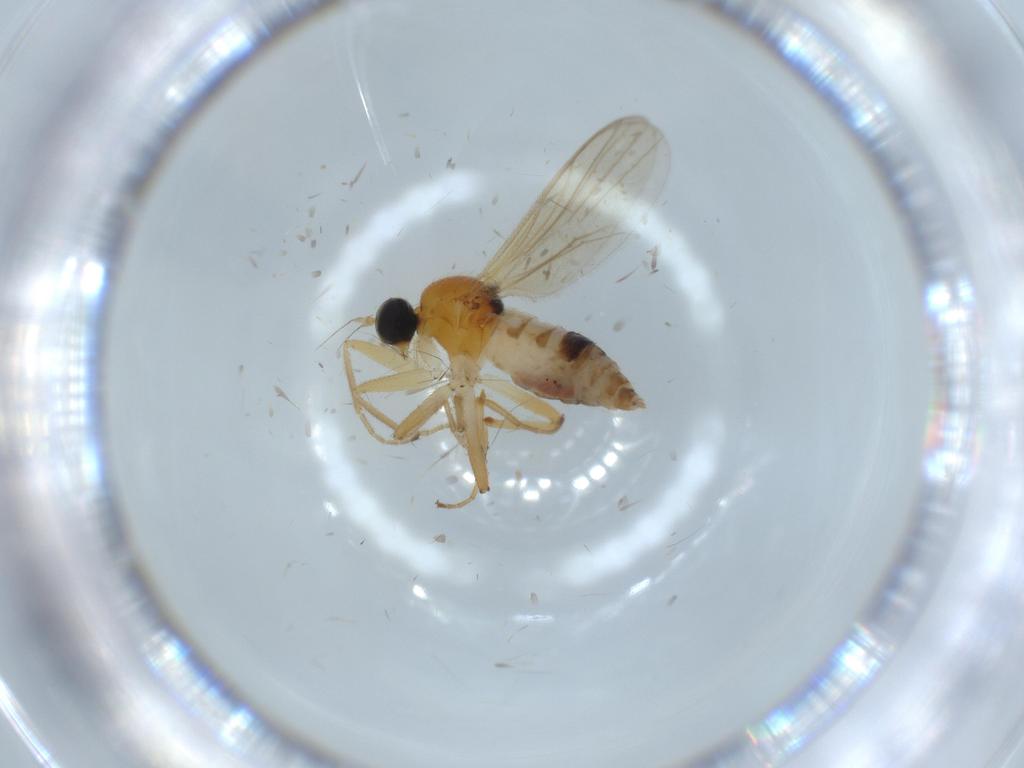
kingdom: Animalia
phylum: Arthropoda
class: Insecta
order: Diptera
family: Hybotidae
